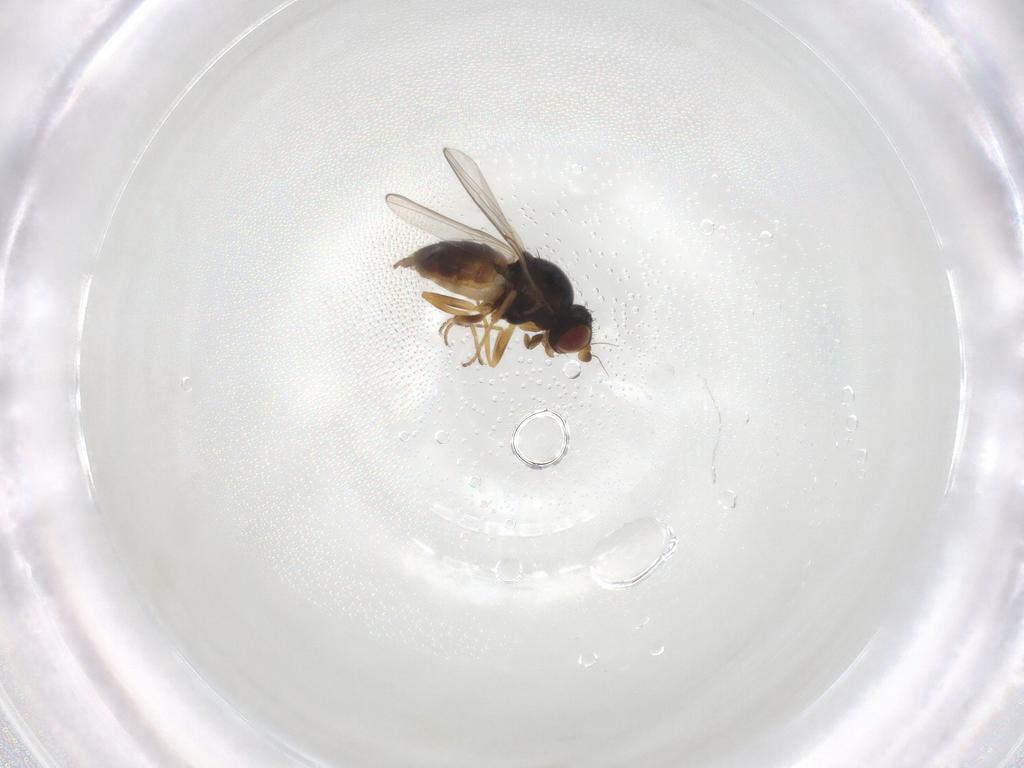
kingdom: Animalia
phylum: Arthropoda
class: Insecta
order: Diptera
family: Chloropidae
